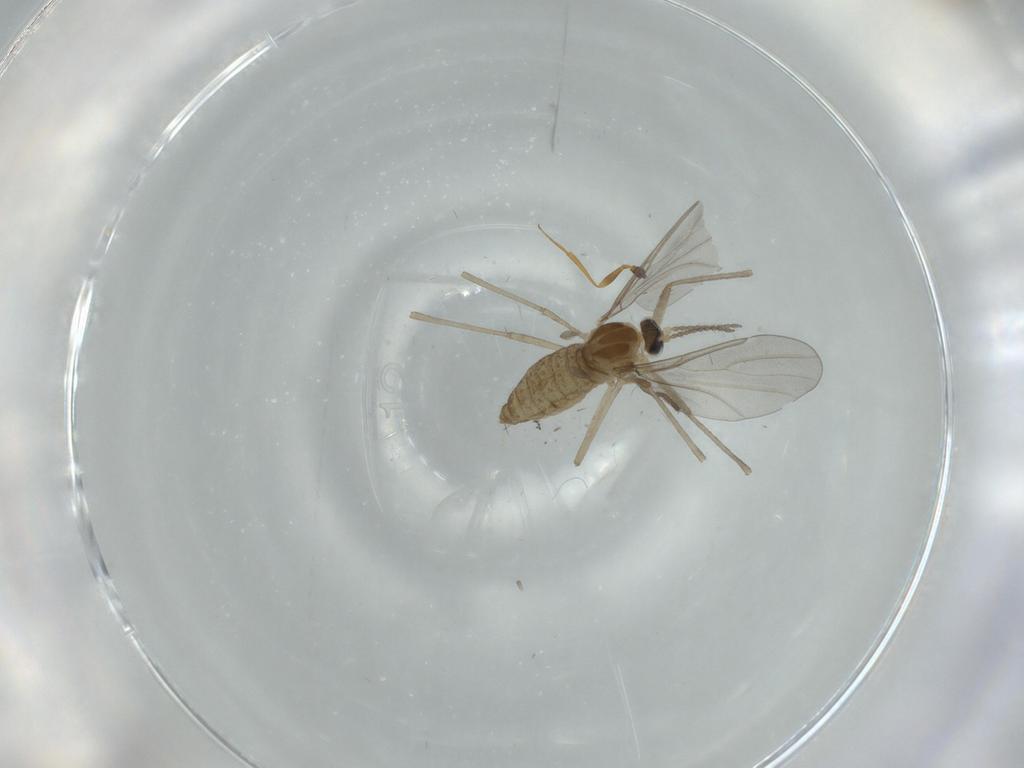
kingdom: Animalia
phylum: Arthropoda
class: Insecta
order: Diptera
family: Cecidomyiidae
